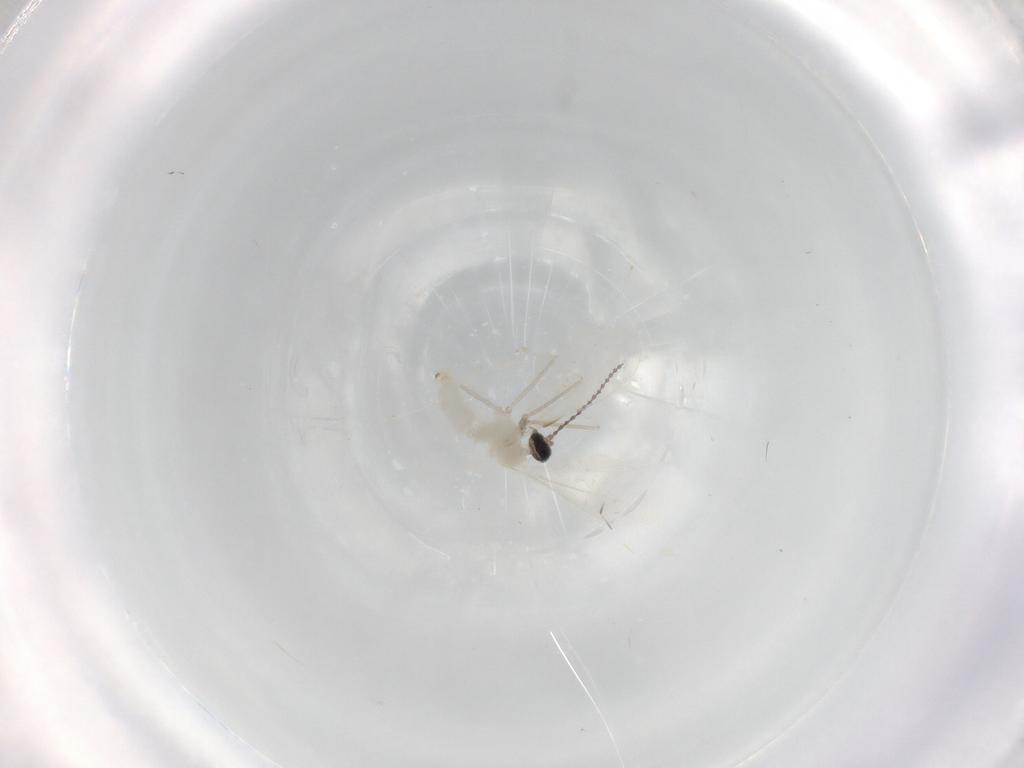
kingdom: Animalia
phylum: Arthropoda
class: Insecta
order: Diptera
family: Cecidomyiidae
